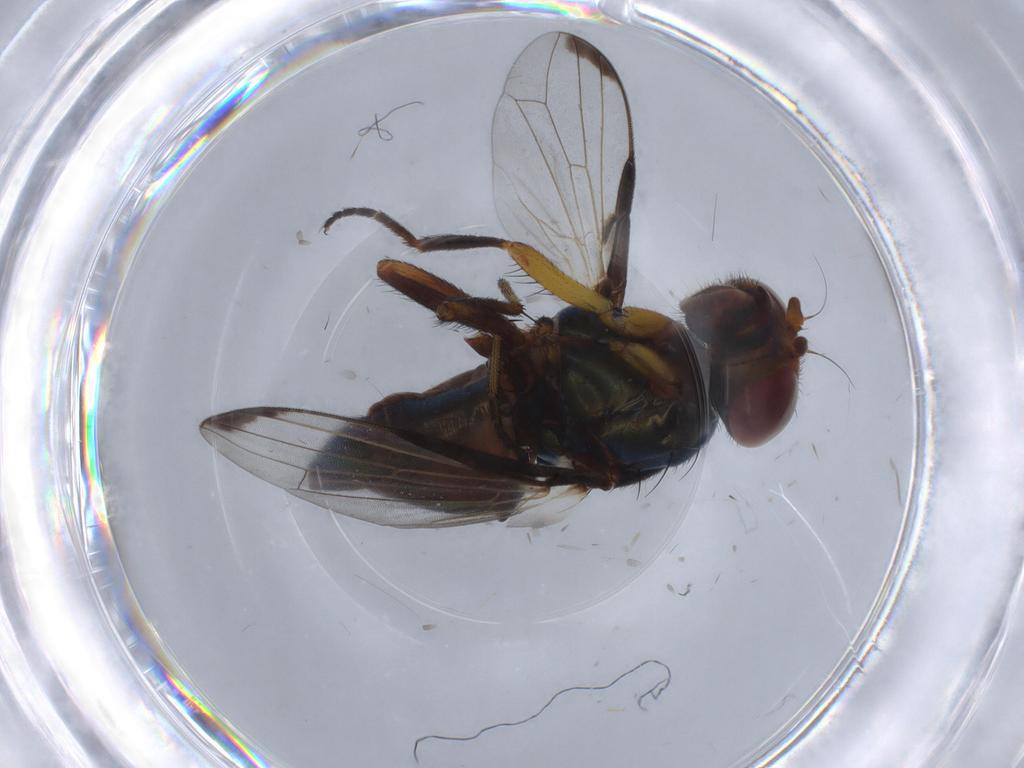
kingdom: Animalia
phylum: Arthropoda
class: Insecta
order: Diptera
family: Ulidiidae
